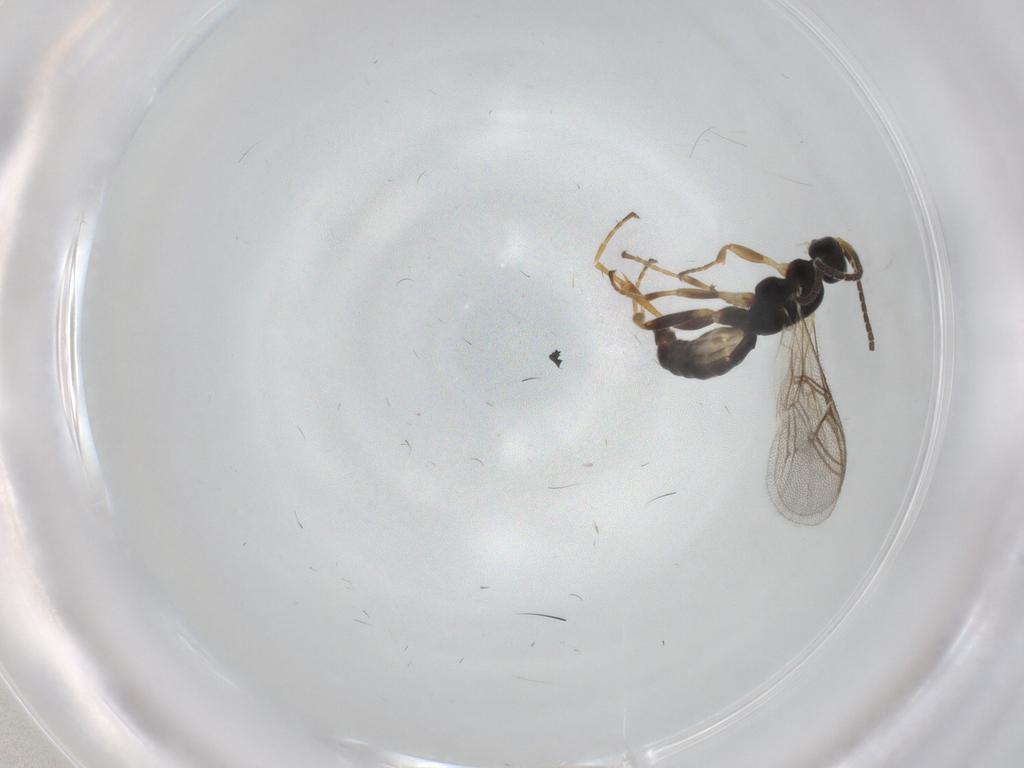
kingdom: Animalia
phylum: Arthropoda
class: Insecta
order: Hymenoptera
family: Ichneumonidae
